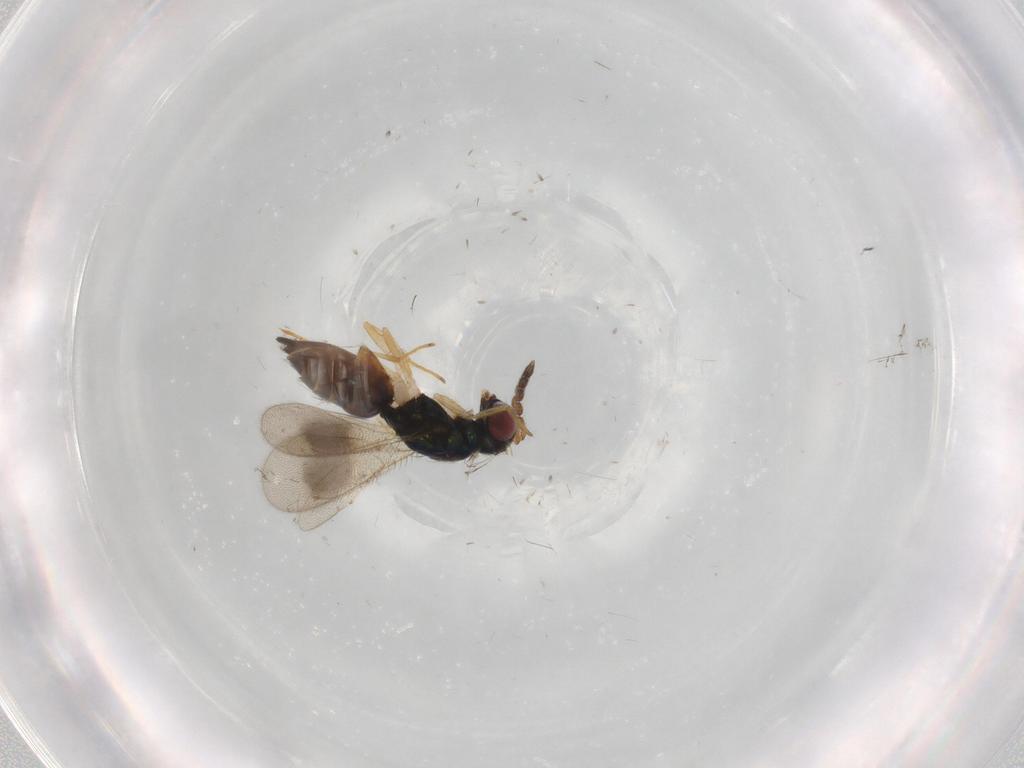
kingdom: Animalia
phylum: Arthropoda
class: Insecta
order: Hymenoptera
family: Eulophidae
